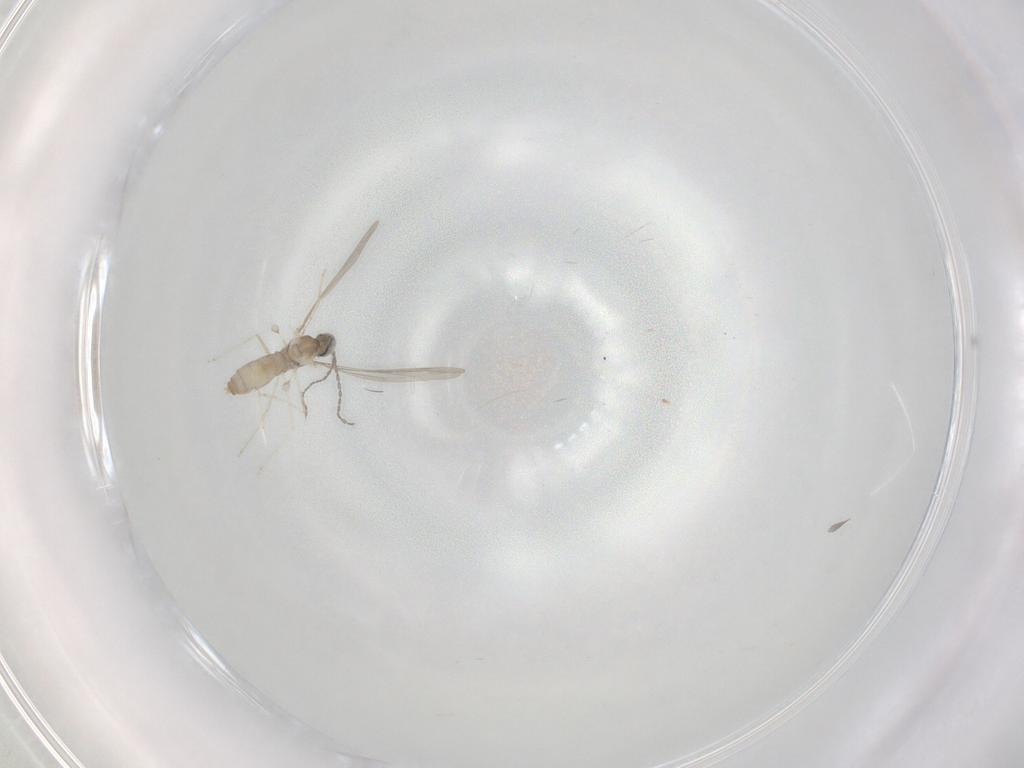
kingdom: Animalia
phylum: Arthropoda
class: Insecta
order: Diptera
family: Cecidomyiidae
